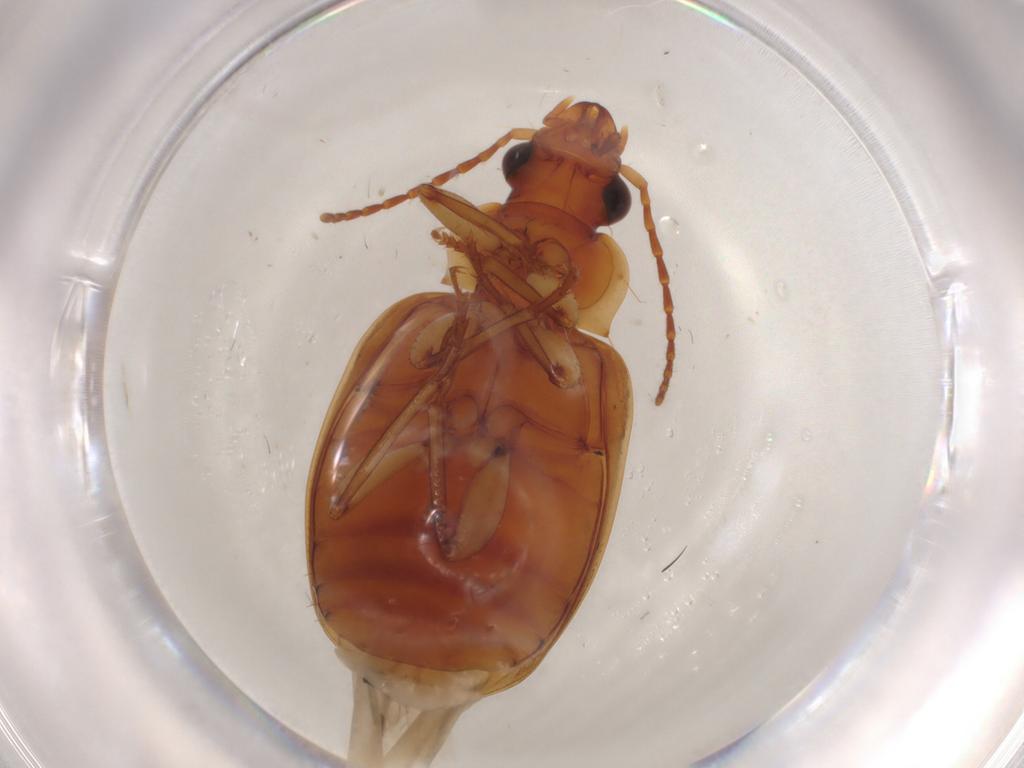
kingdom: Animalia
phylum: Arthropoda
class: Insecta
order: Coleoptera
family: Carabidae
